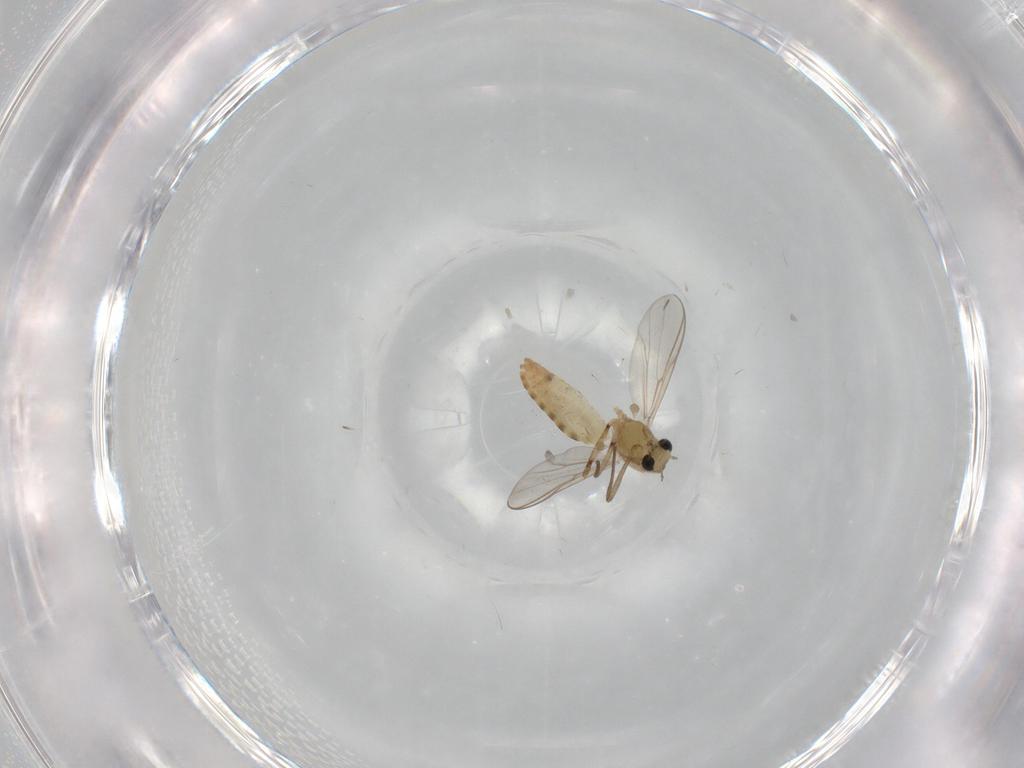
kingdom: Animalia
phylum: Arthropoda
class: Insecta
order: Diptera
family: Chironomidae
